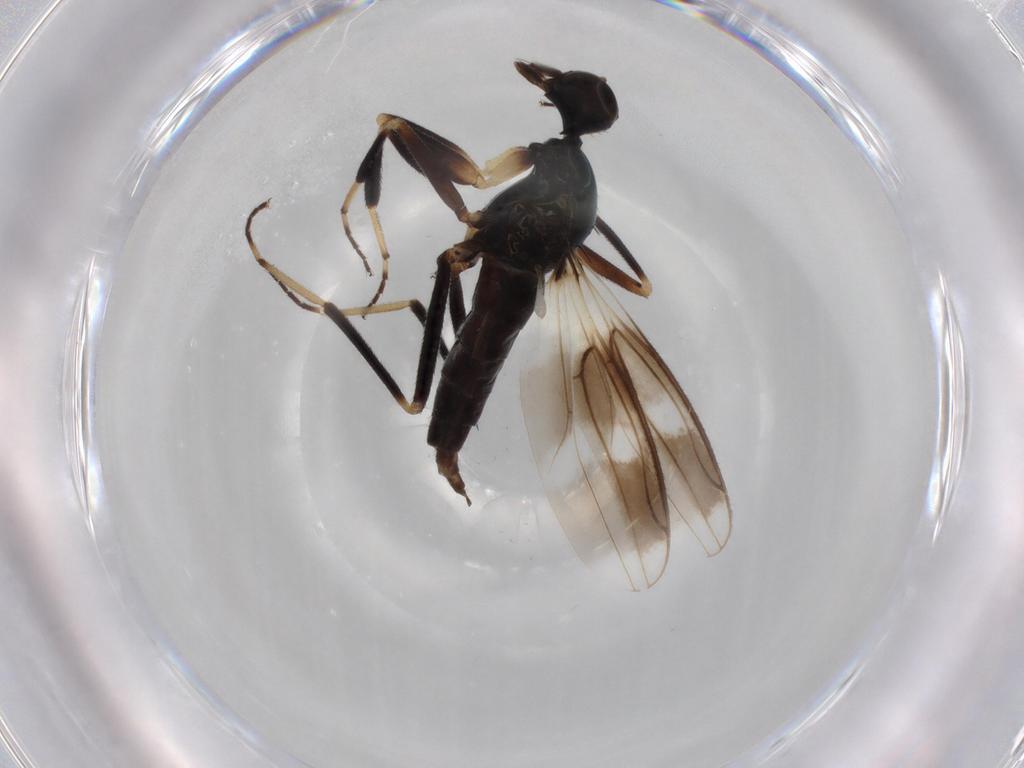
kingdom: Animalia
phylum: Arthropoda
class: Insecta
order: Diptera
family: Hybotidae
